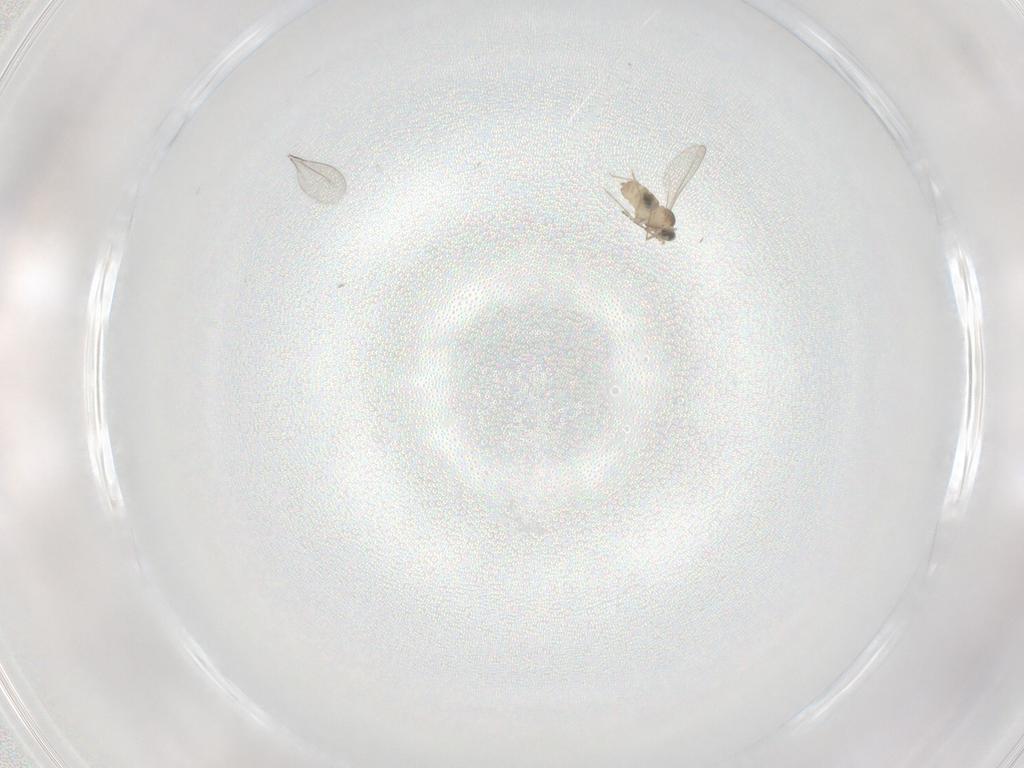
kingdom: Animalia
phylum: Arthropoda
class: Insecta
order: Diptera
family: Cecidomyiidae
